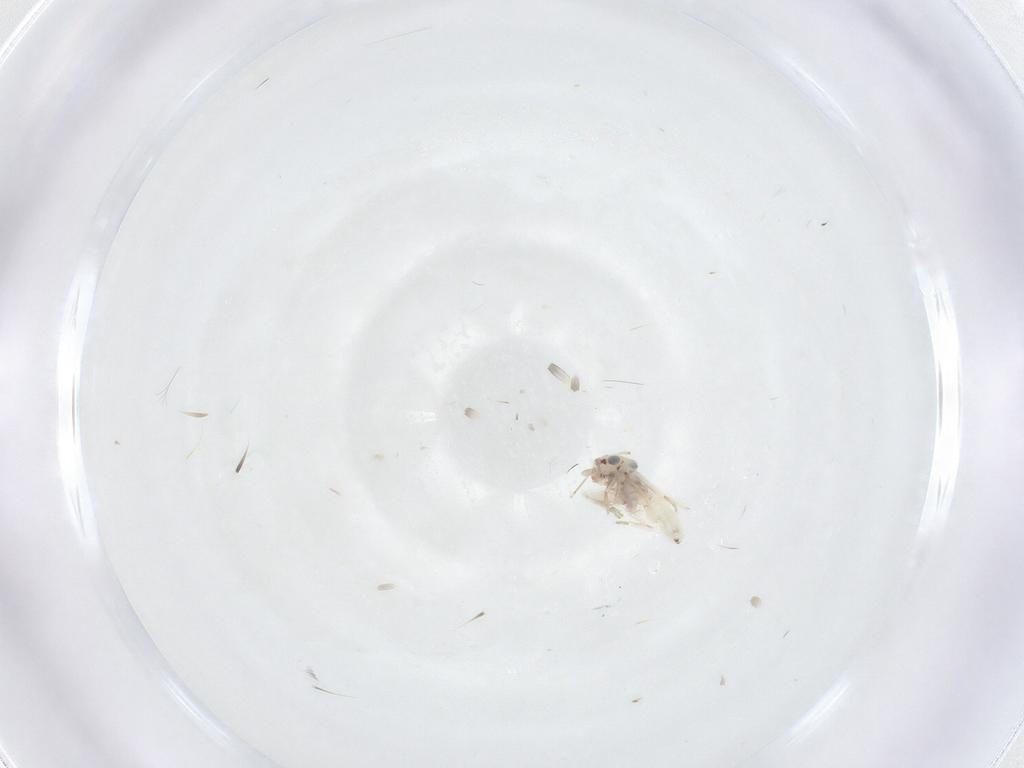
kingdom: Animalia
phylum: Arthropoda
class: Insecta
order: Psocodea
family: Lepidopsocidae
